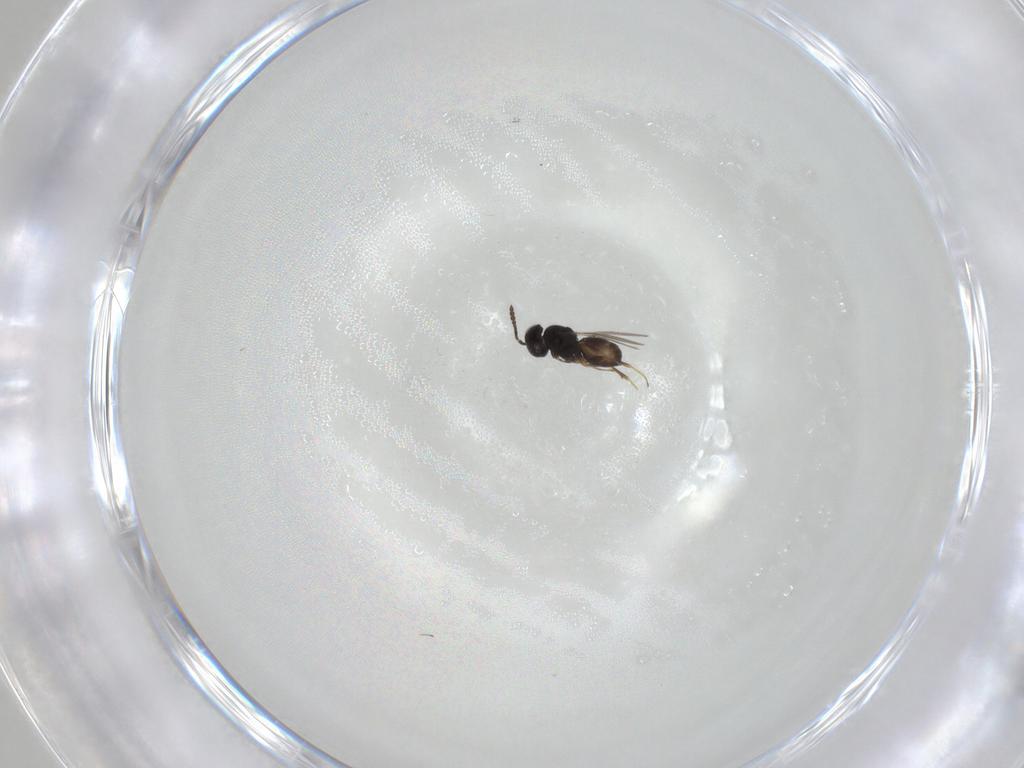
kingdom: Animalia
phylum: Arthropoda
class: Insecta
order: Hymenoptera
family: Scelionidae
